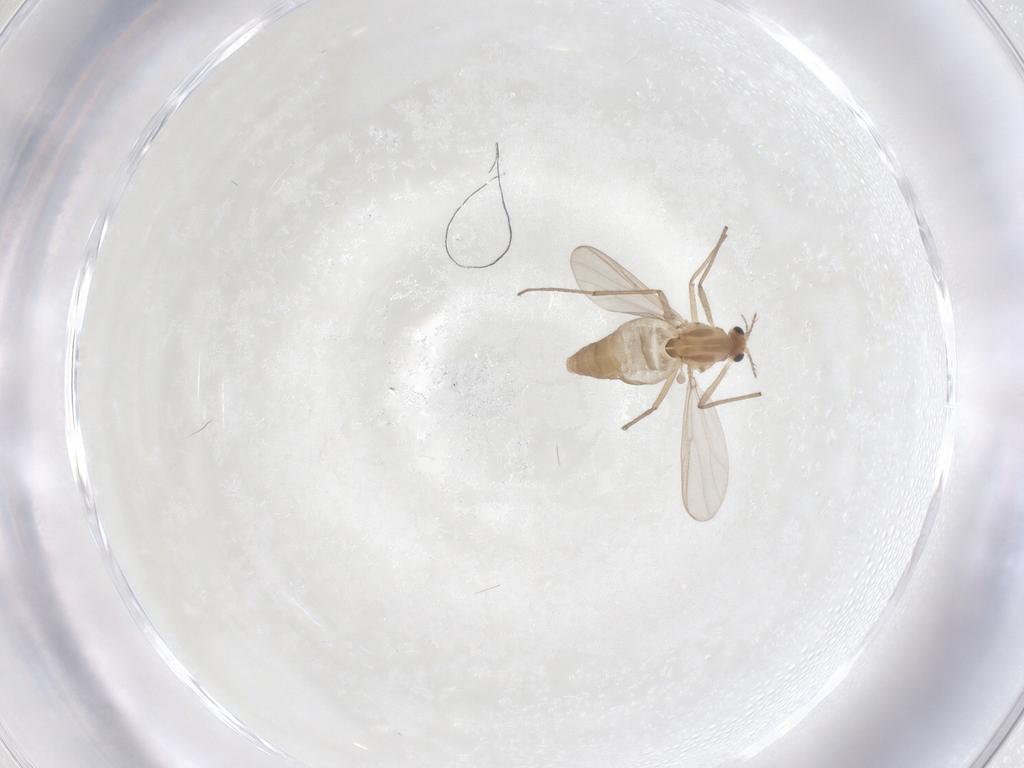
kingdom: Animalia
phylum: Arthropoda
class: Insecta
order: Diptera
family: Chironomidae
